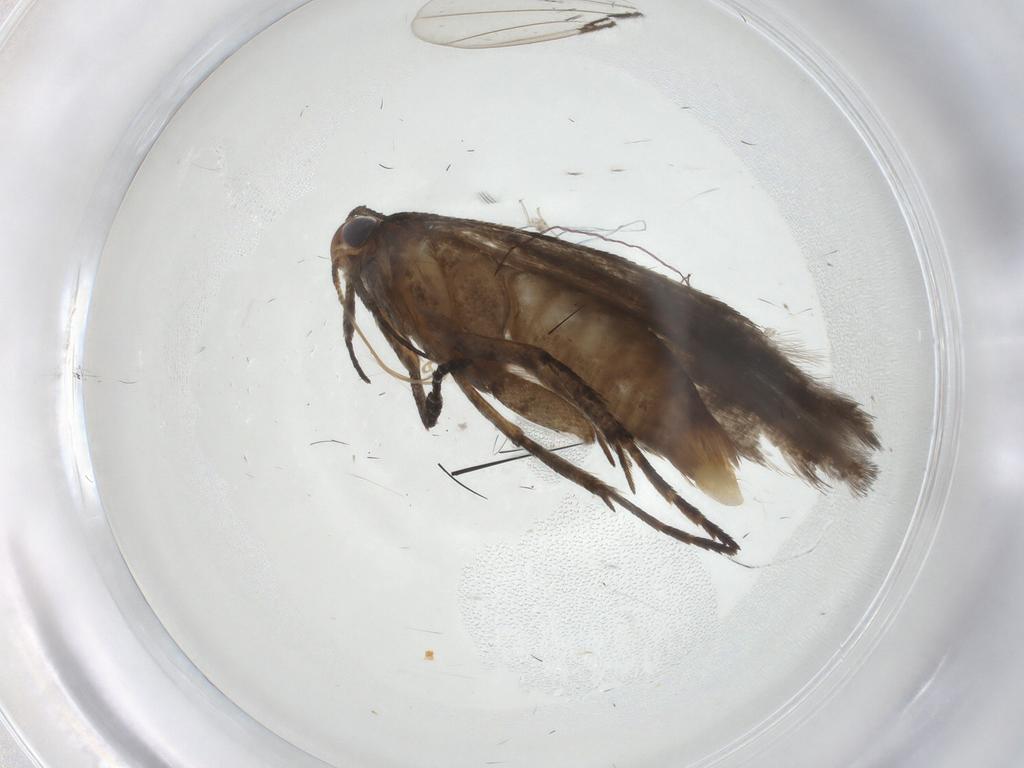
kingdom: Animalia
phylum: Arthropoda
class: Insecta
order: Lepidoptera
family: Gelechiidae
